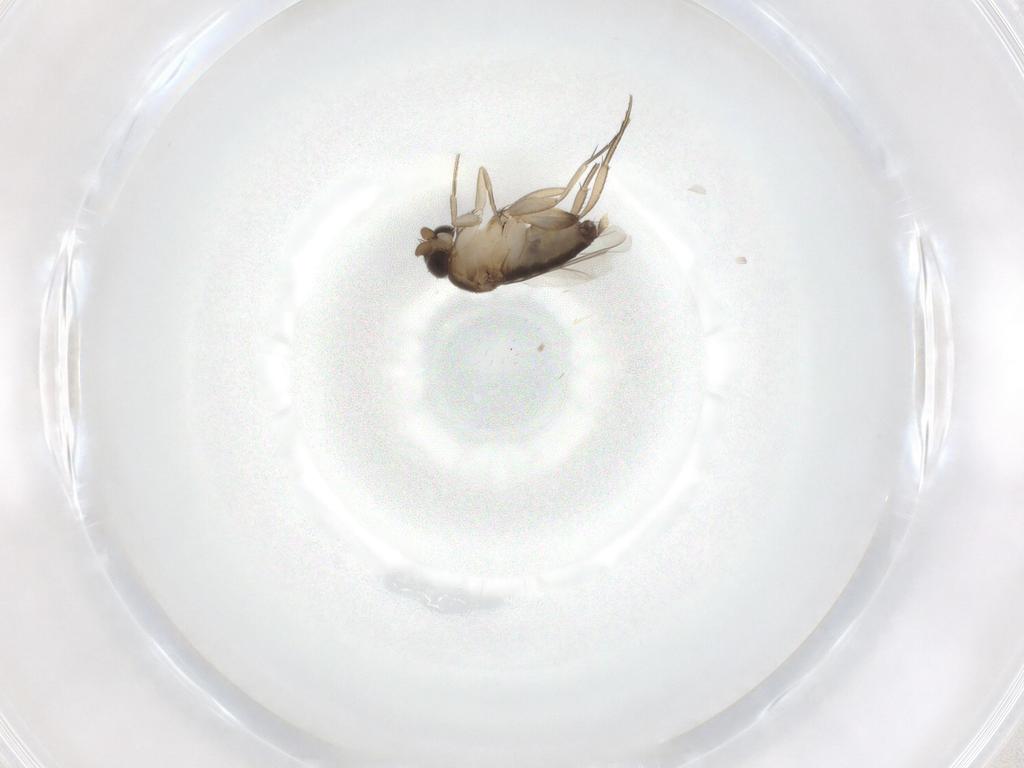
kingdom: Animalia
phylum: Arthropoda
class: Insecta
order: Diptera
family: Phoridae
